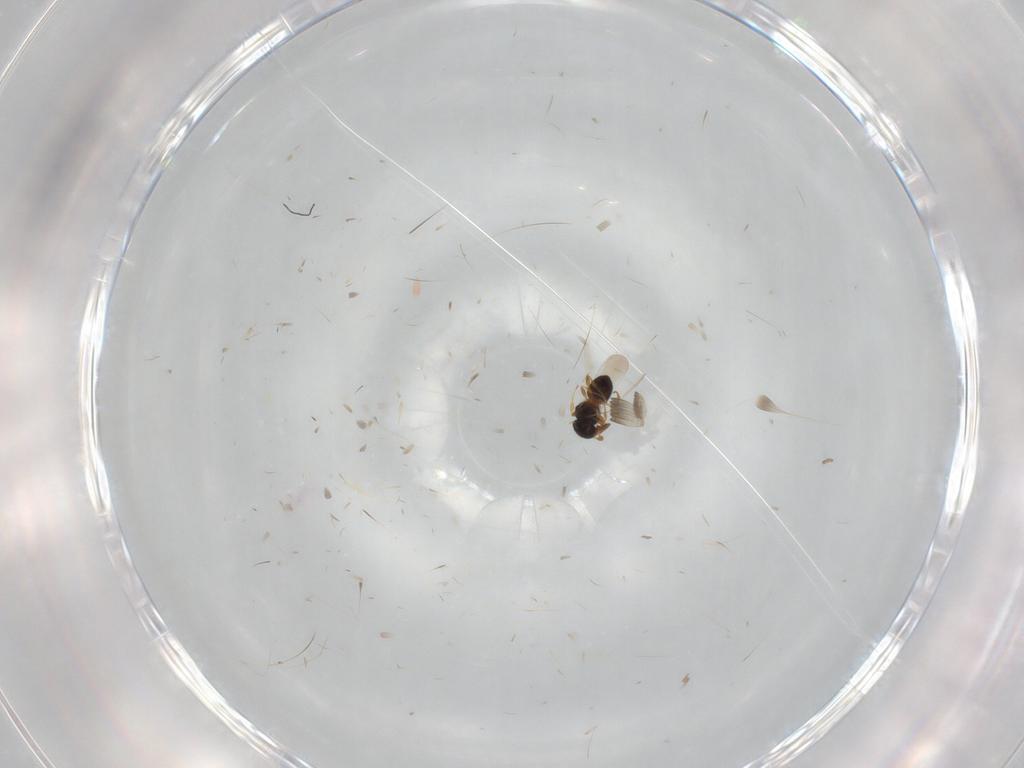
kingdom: Animalia
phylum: Arthropoda
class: Insecta
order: Hymenoptera
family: Platygastridae
